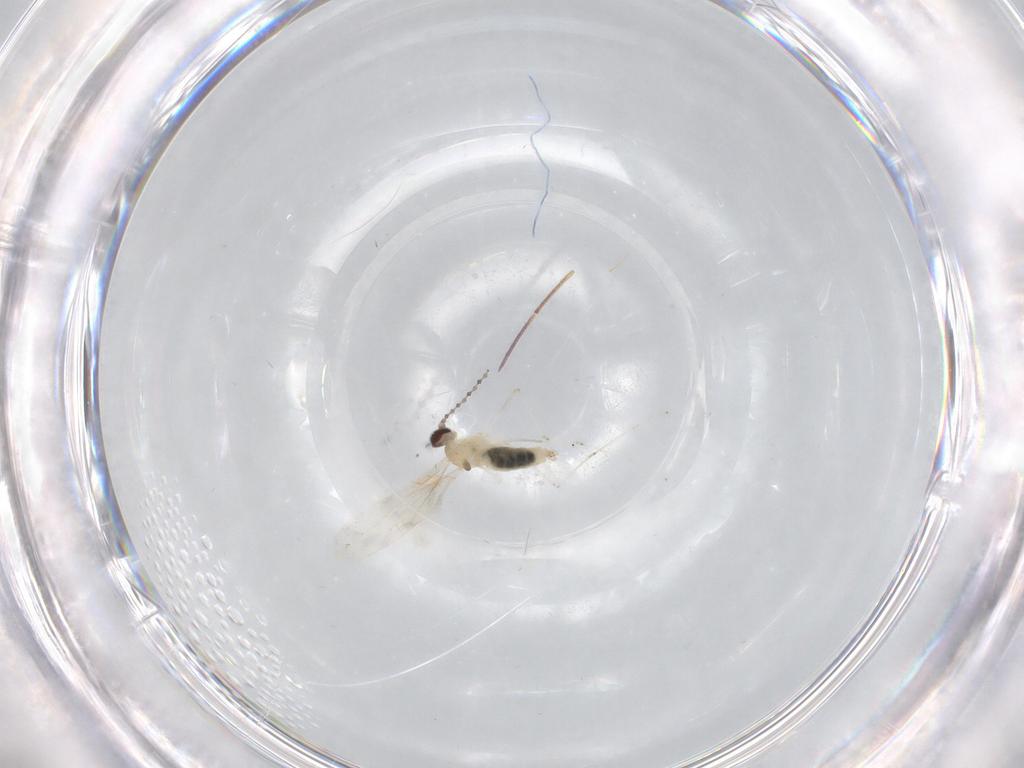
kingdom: Animalia
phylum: Arthropoda
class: Insecta
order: Diptera
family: Cecidomyiidae
